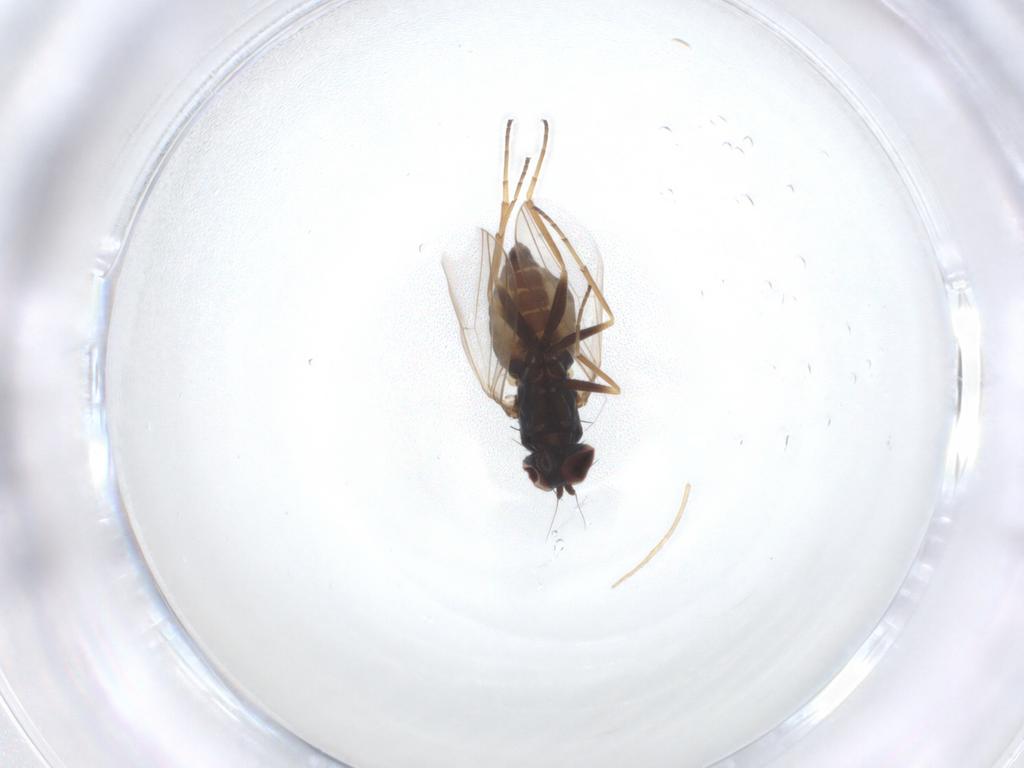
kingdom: Animalia
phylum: Arthropoda
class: Insecta
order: Diptera
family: Dolichopodidae
